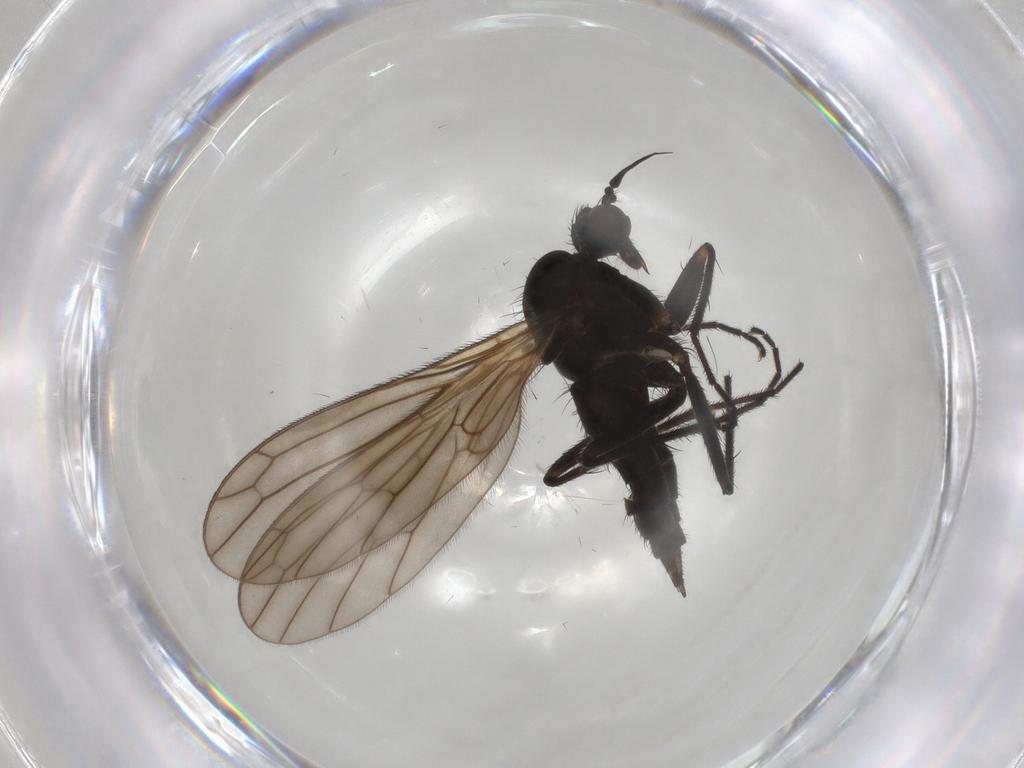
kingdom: Animalia
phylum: Arthropoda
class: Insecta
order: Diptera
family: Empididae
